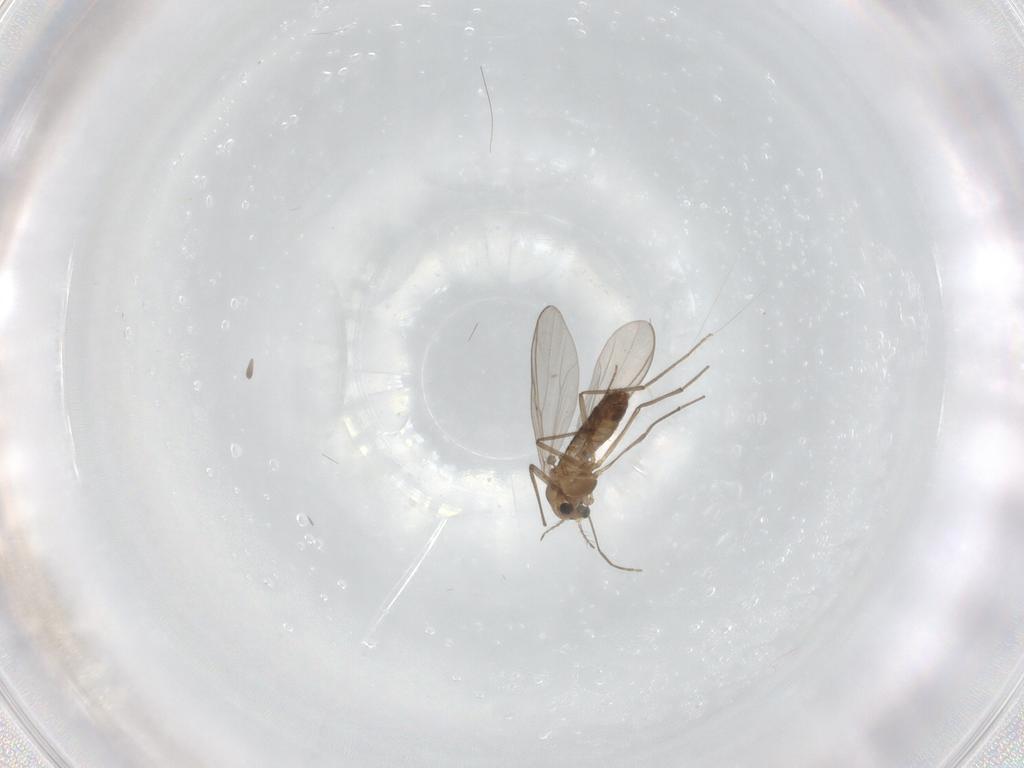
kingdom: Animalia
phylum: Arthropoda
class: Insecta
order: Diptera
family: Chironomidae
